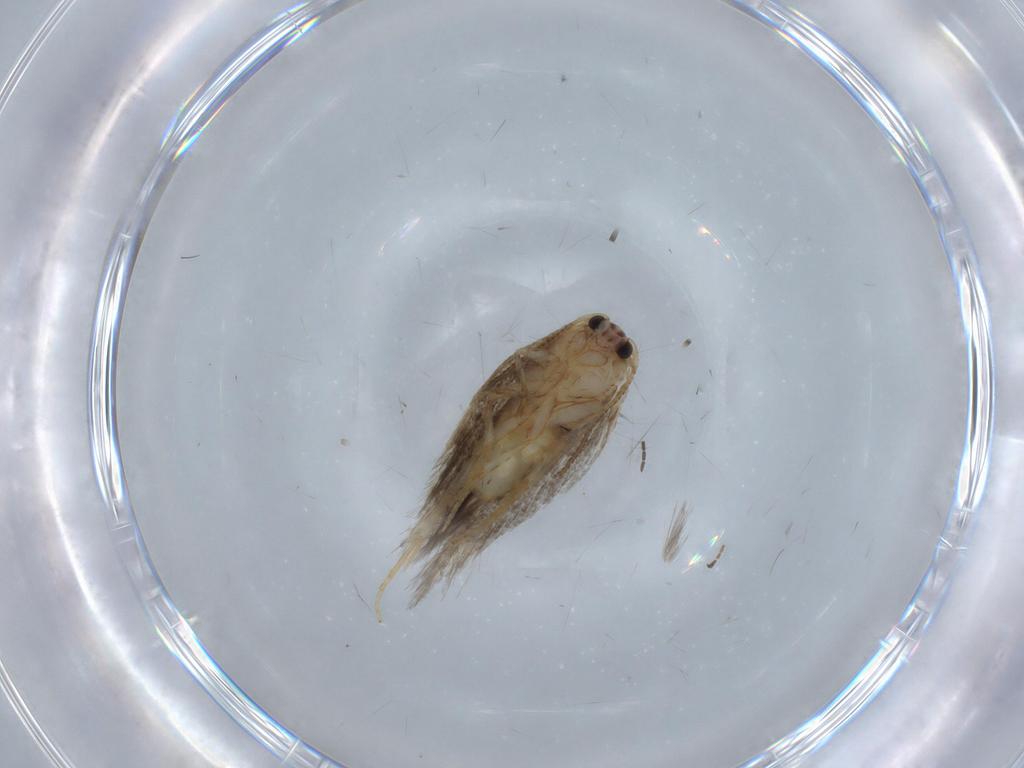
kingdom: Animalia
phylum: Arthropoda
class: Insecta
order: Lepidoptera
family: Nepticulidae
